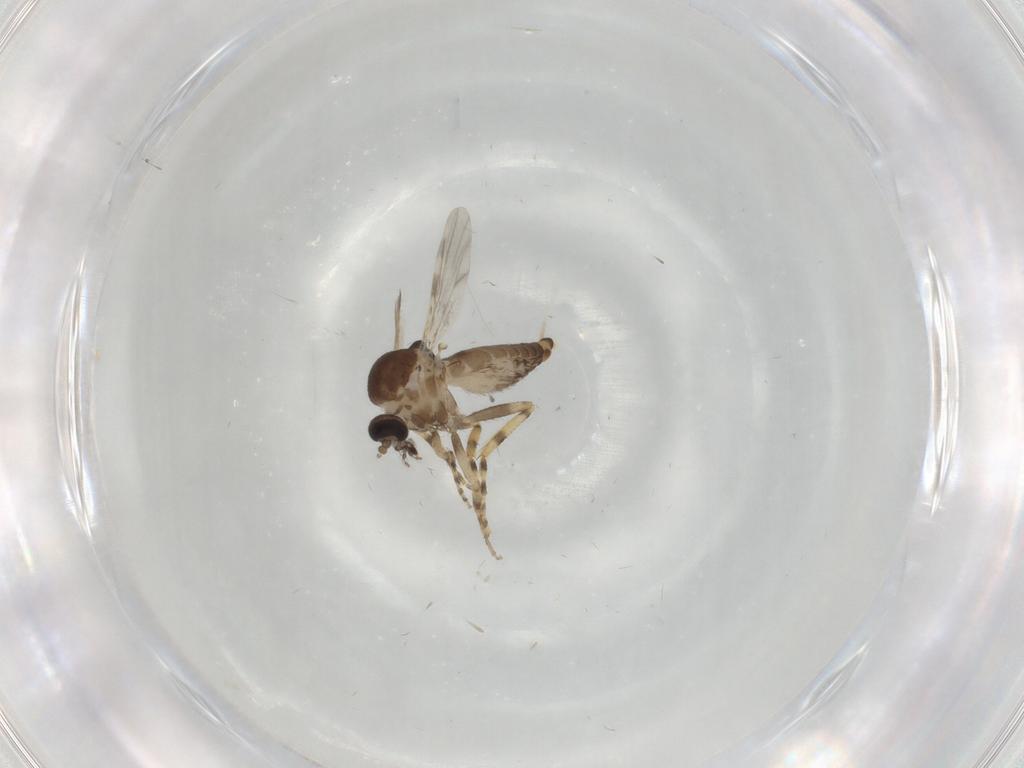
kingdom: Animalia
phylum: Arthropoda
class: Insecta
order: Diptera
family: Ceratopogonidae
